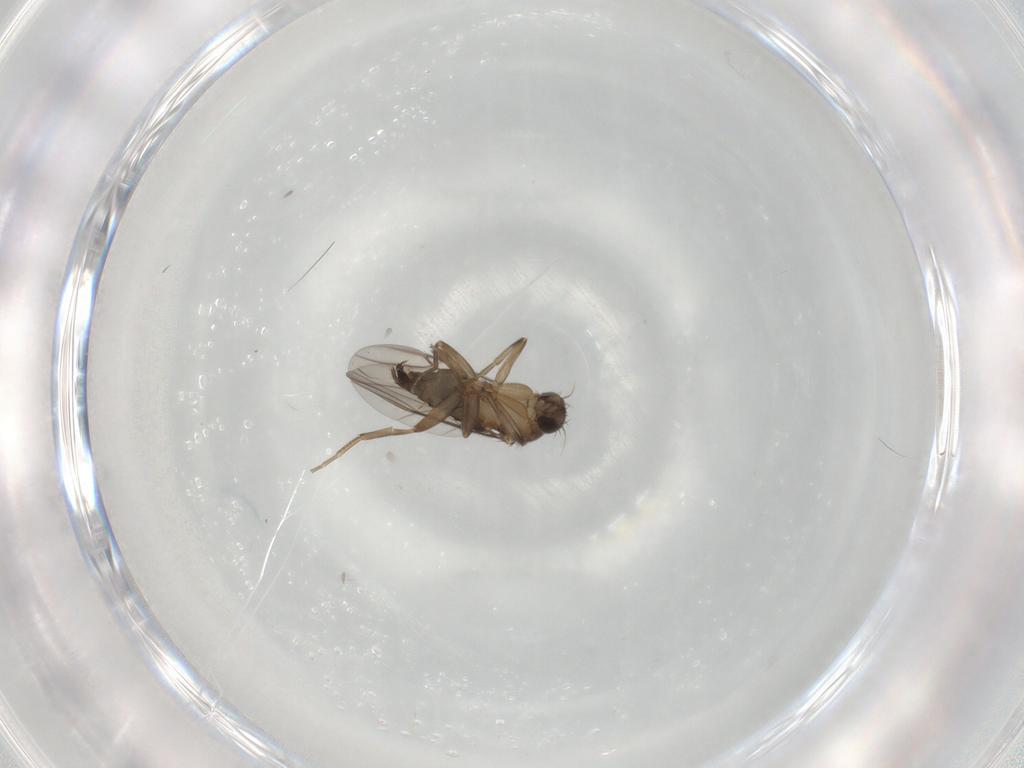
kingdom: Animalia
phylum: Arthropoda
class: Insecta
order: Diptera
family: Phoridae
